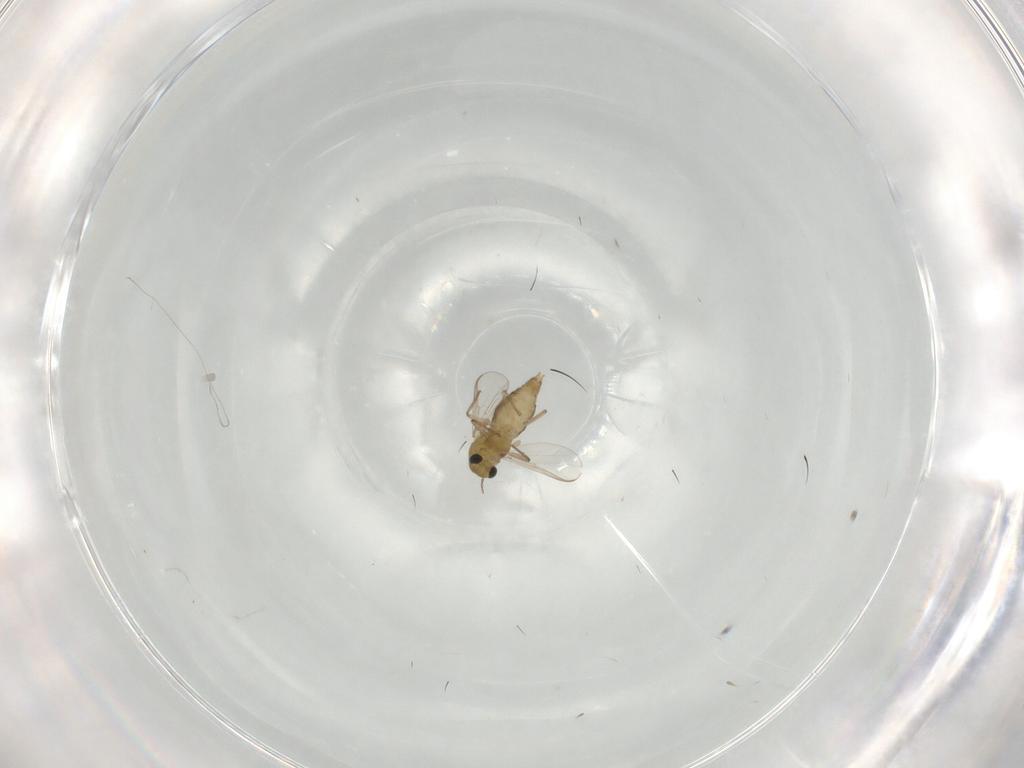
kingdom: Animalia
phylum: Arthropoda
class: Insecta
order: Diptera
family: Chironomidae
